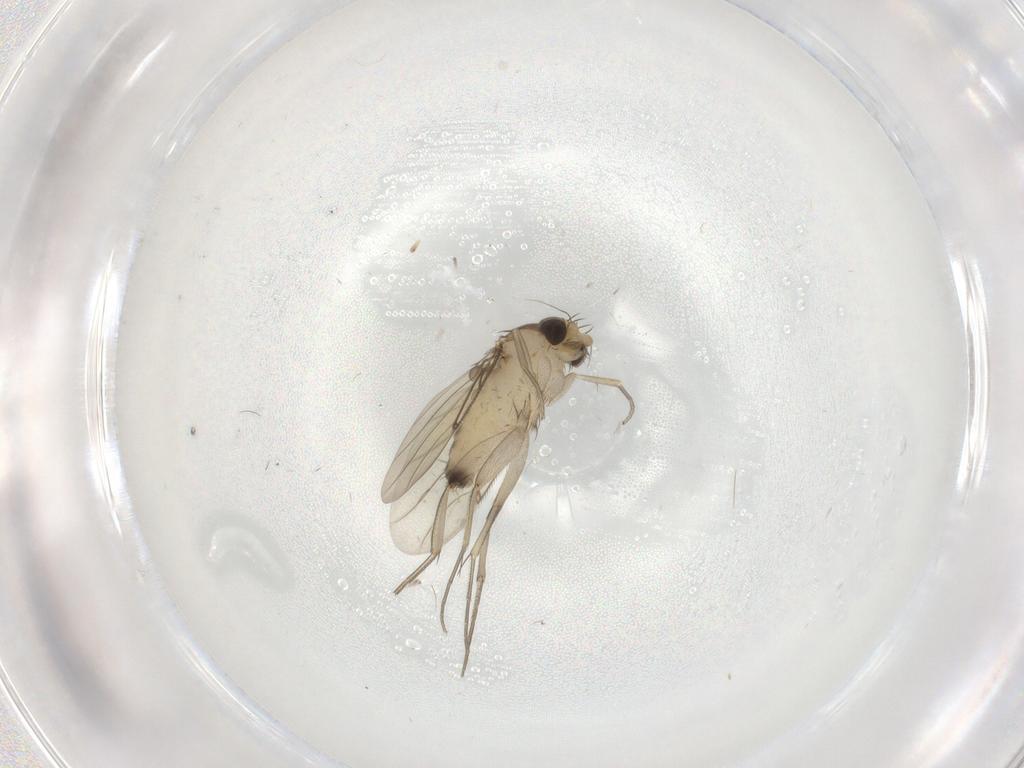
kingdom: Animalia
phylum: Arthropoda
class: Insecta
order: Diptera
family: Phoridae
